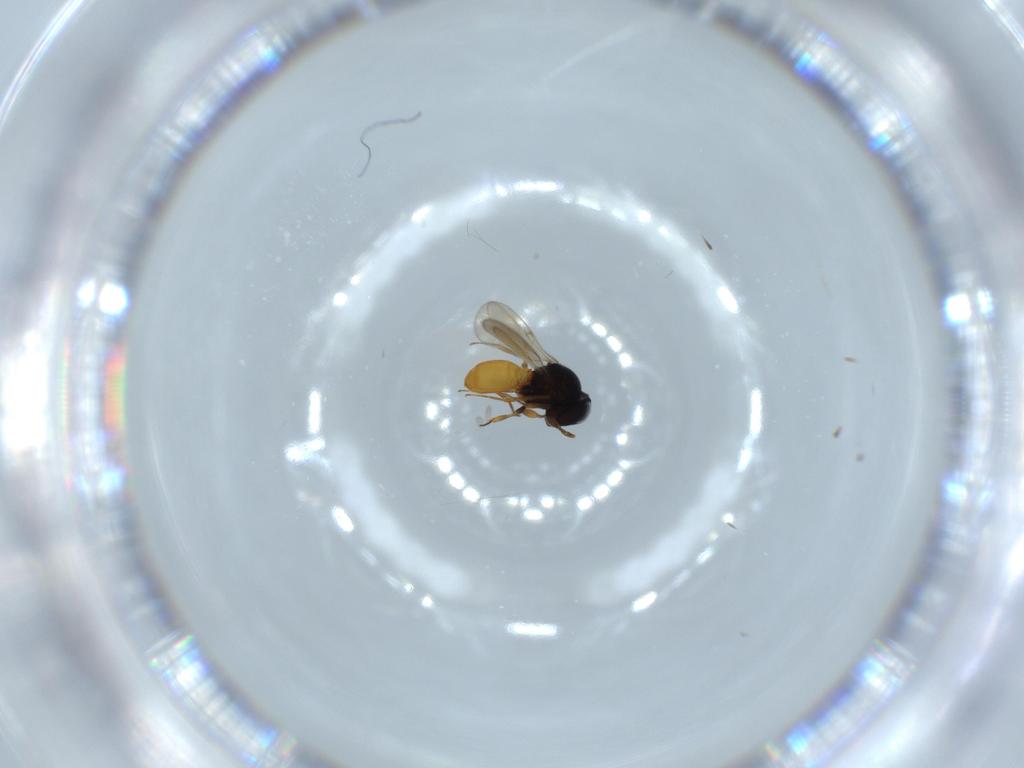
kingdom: Animalia
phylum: Arthropoda
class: Insecta
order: Hymenoptera
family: Scelionidae
